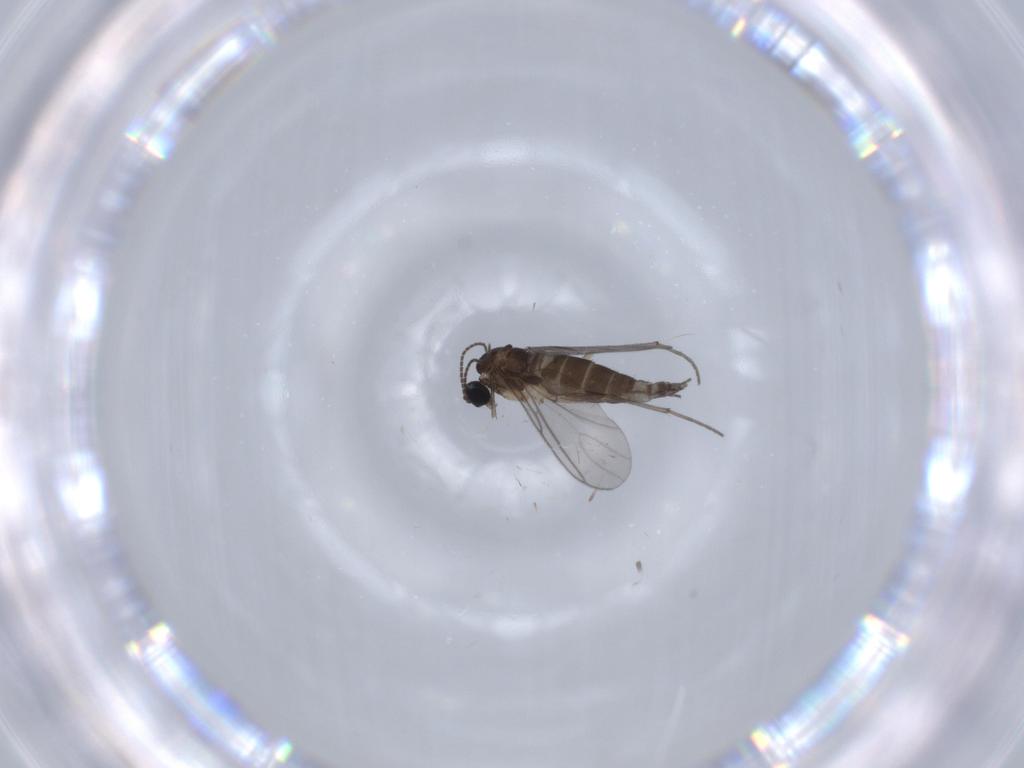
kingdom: Animalia
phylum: Arthropoda
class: Insecta
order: Diptera
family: Sciaridae
